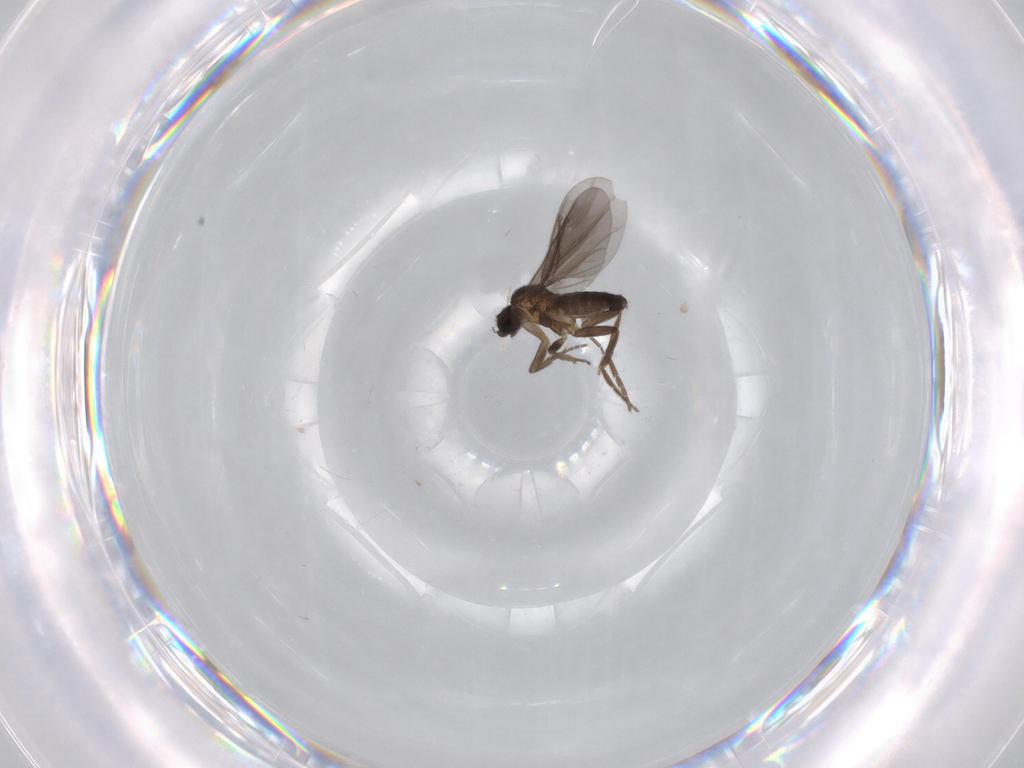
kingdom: Animalia
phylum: Arthropoda
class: Insecta
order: Diptera
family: Phoridae
